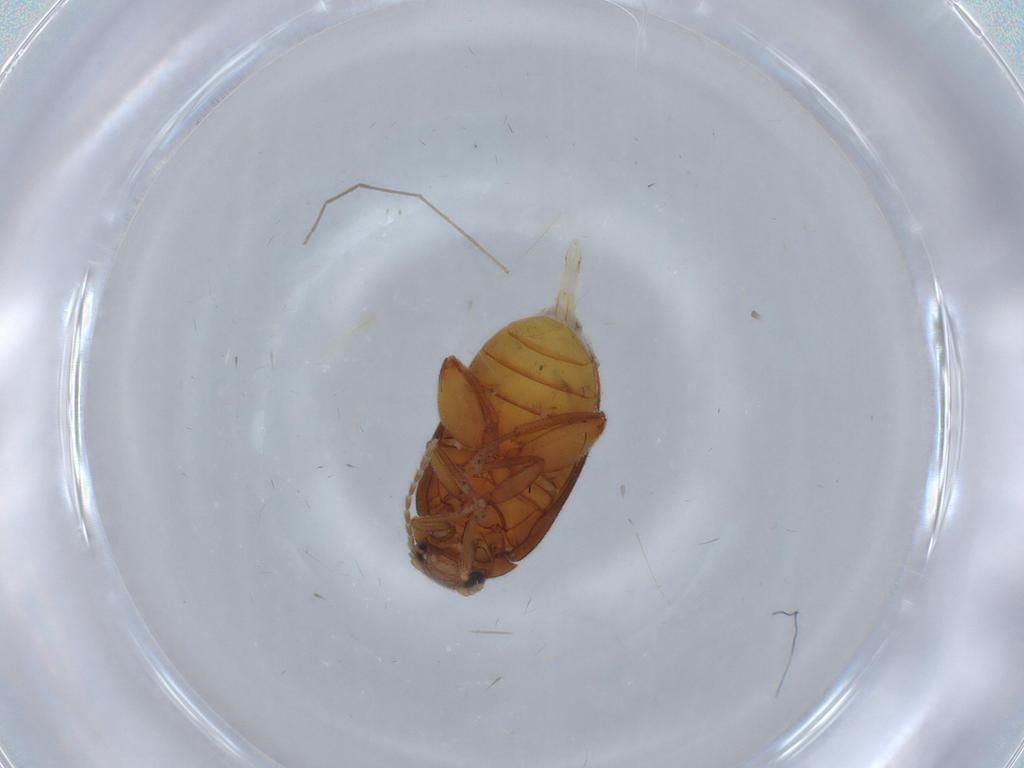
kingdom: Animalia
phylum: Arthropoda
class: Insecta
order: Coleoptera
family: Scirtidae
